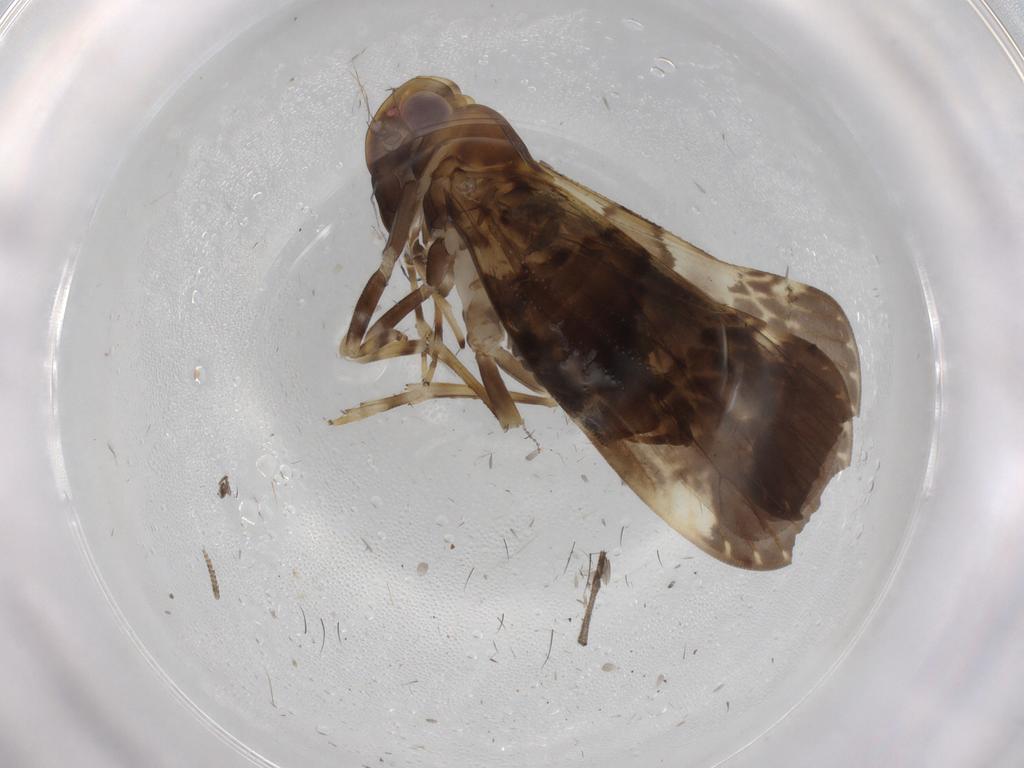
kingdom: Animalia
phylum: Arthropoda
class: Insecta
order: Hemiptera
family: Cixiidae
